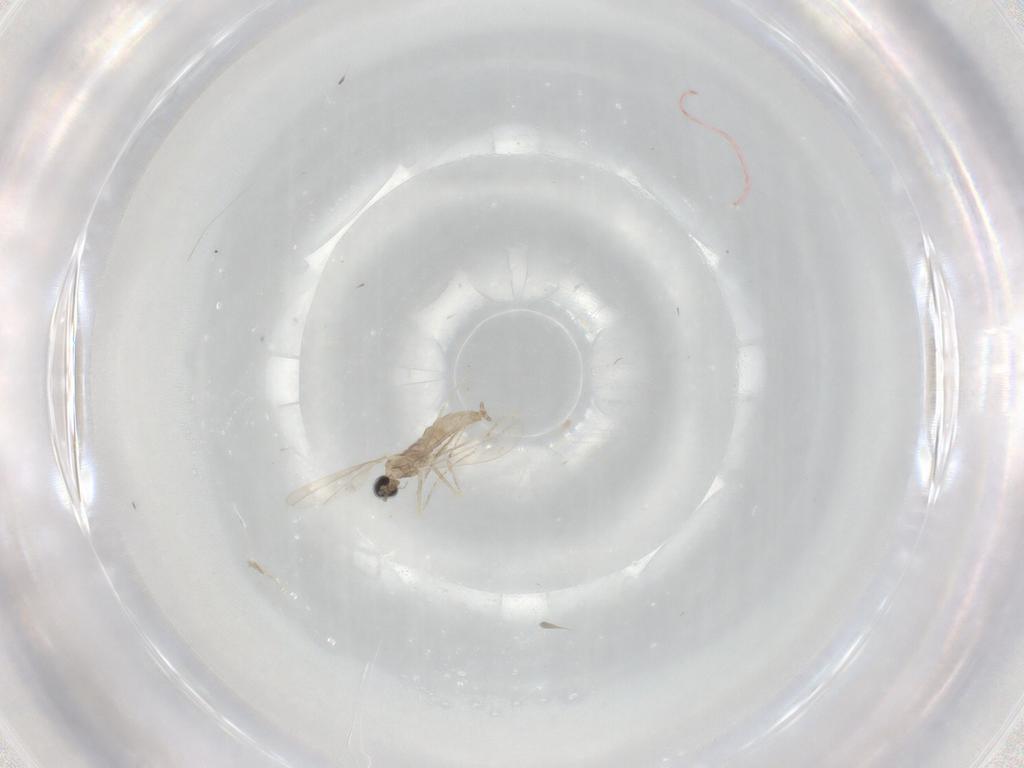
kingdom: Animalia
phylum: Arthropoda
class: Insecta
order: Diptera
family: Cecidomyiidae
